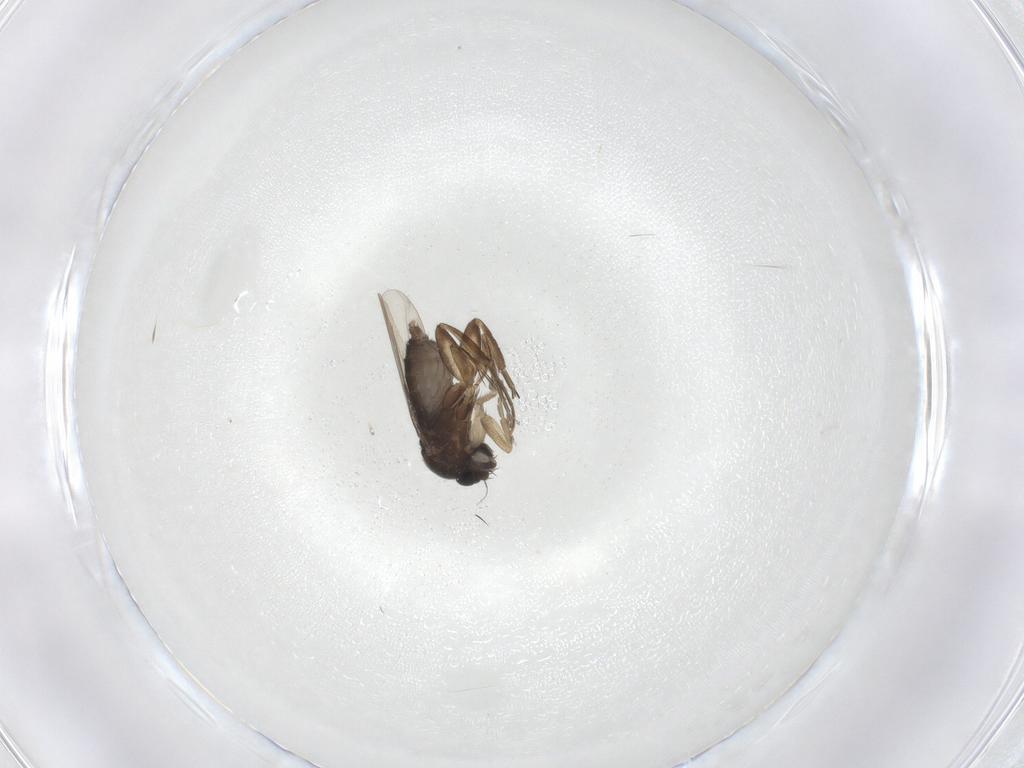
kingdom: Animalia
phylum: Arthropoda
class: Insecta
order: Diptera
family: Phoridae
